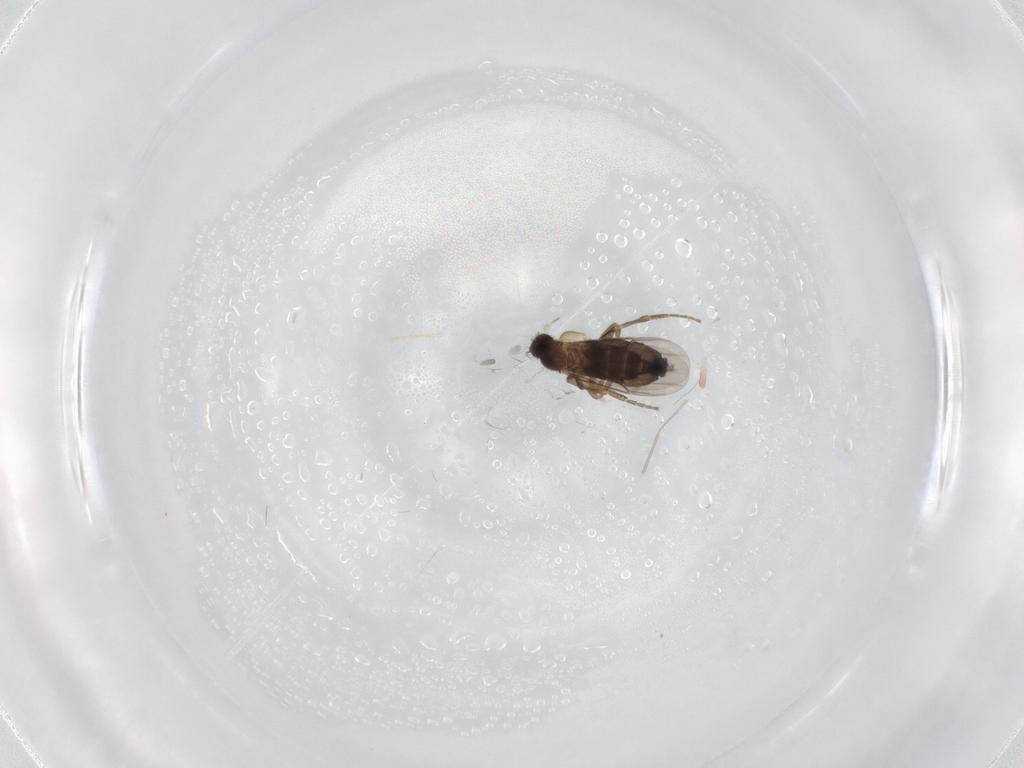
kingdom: Animalia
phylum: Arthropoda
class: Insecta
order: Diptera
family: Phoridae
